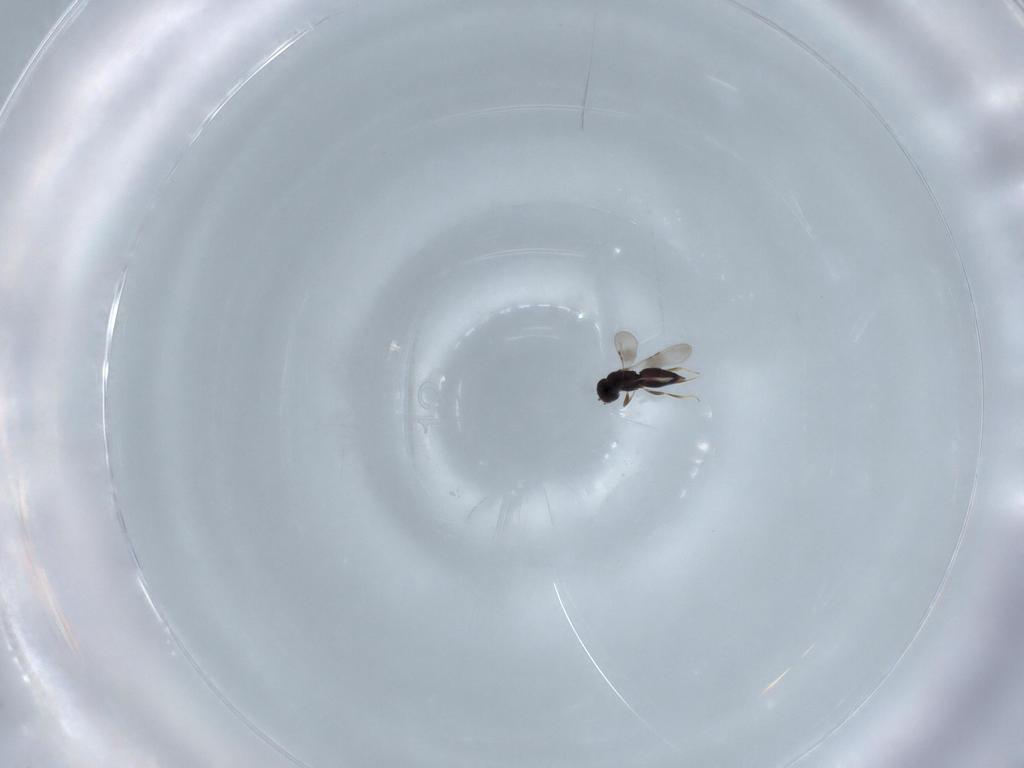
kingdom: Animalia
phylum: Arthropoda
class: Insecta
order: Hymenoptera
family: Ceraphronidae
